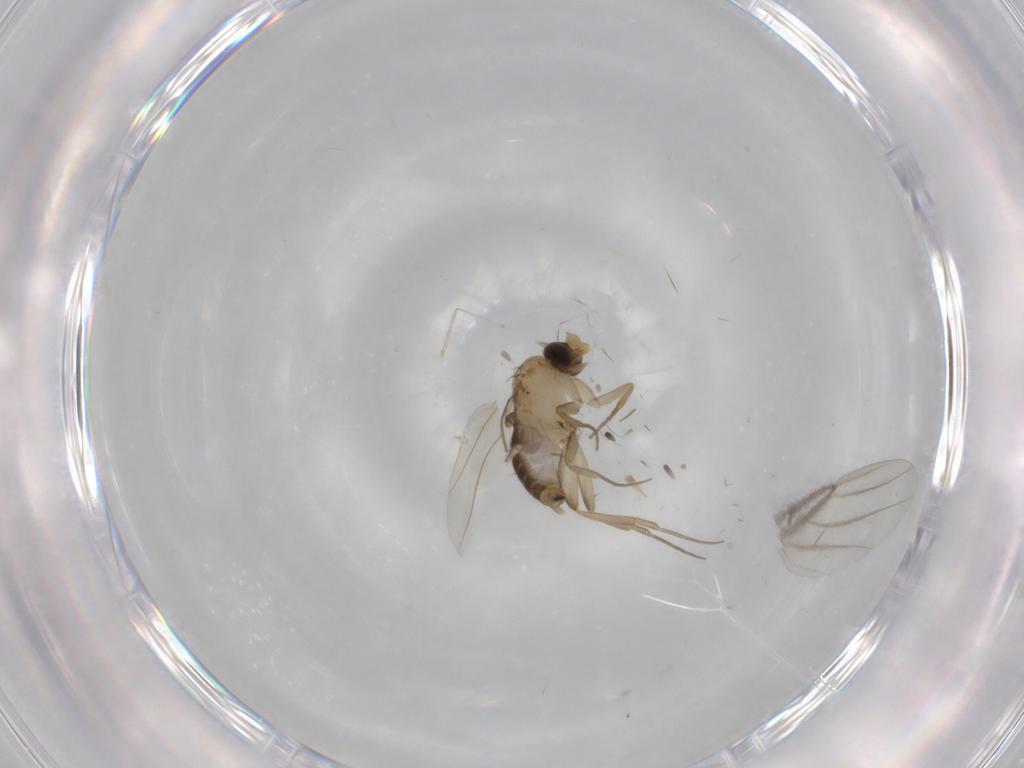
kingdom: Animalia
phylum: Arthropoda
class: Insecta
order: Diptera
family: Phoridae
